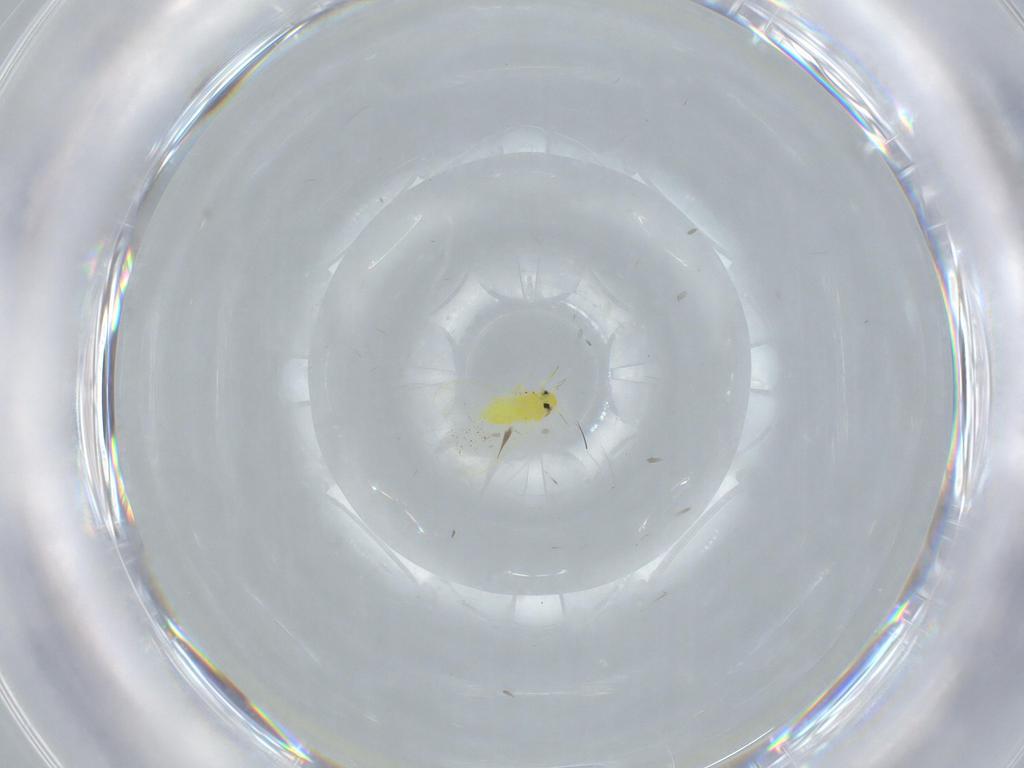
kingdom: Animalia
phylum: Arthropoda
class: Insecta
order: Hemiptera
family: Aleyrodidae
